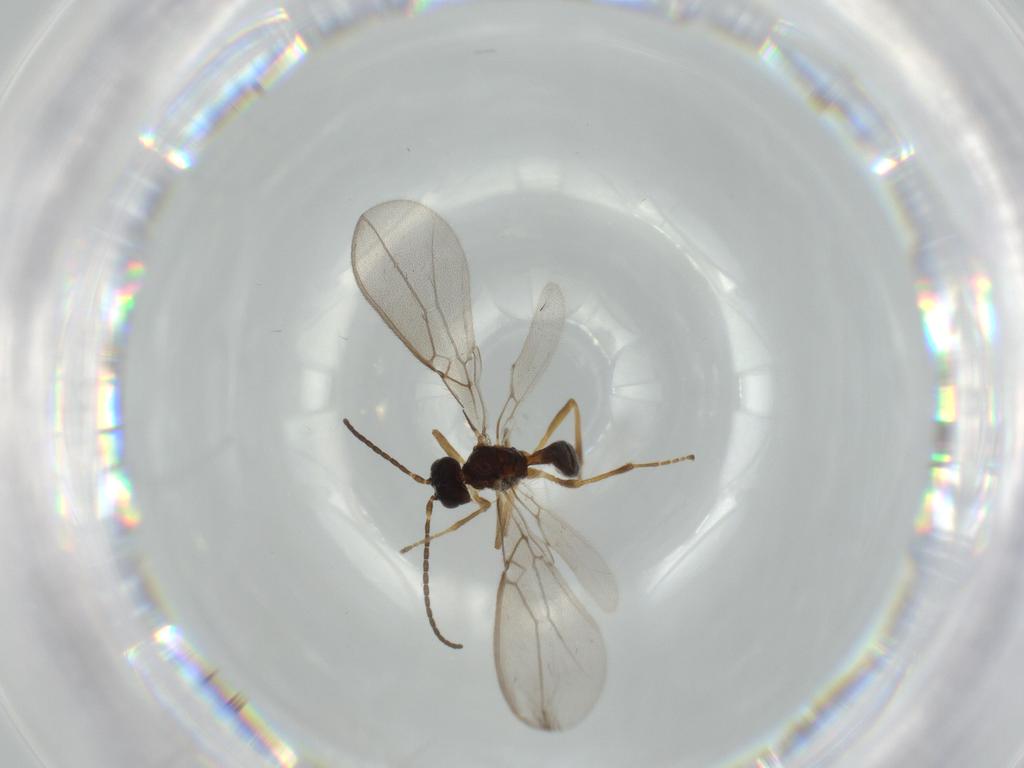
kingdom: Animalia
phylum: Arthropoda
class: Insecta
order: Hymenoptera
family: Braconidae
